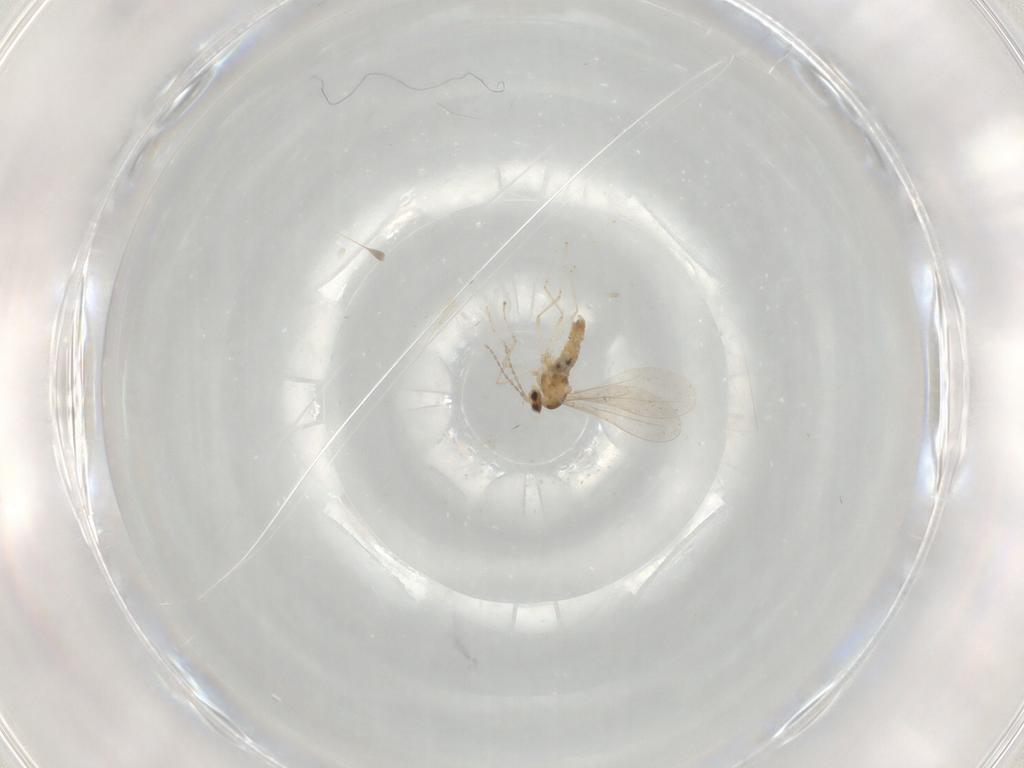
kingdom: Animalia
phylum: Arthropoda
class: Insecta
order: Diptera
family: Cecidomyiidae
